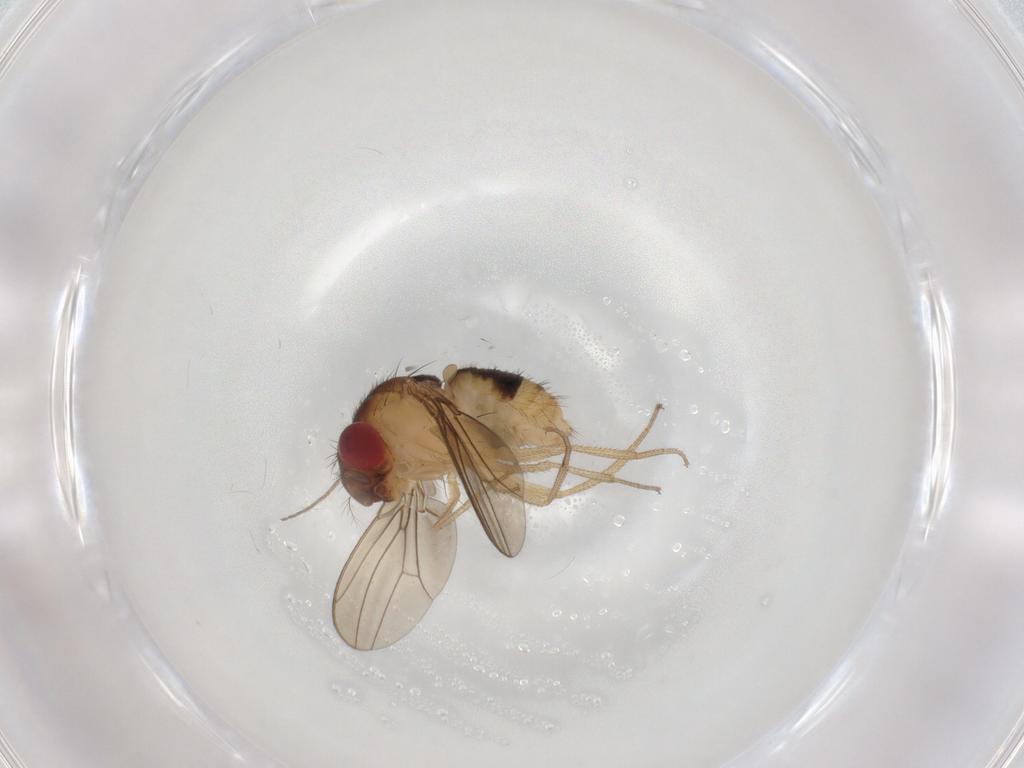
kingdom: Animalia
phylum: Arthropoda
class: Insecta
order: Diptera
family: Drosophilidae
